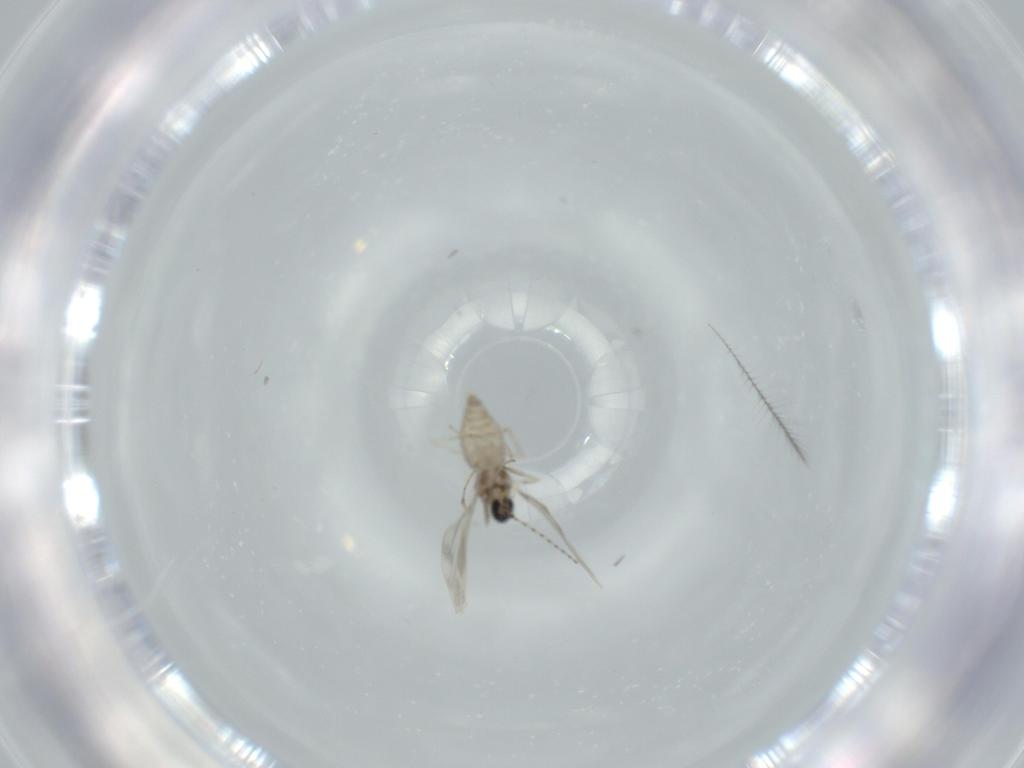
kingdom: Animalia
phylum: Arthropoda
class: Insecta
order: Diptera
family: Cecidomyiidae
